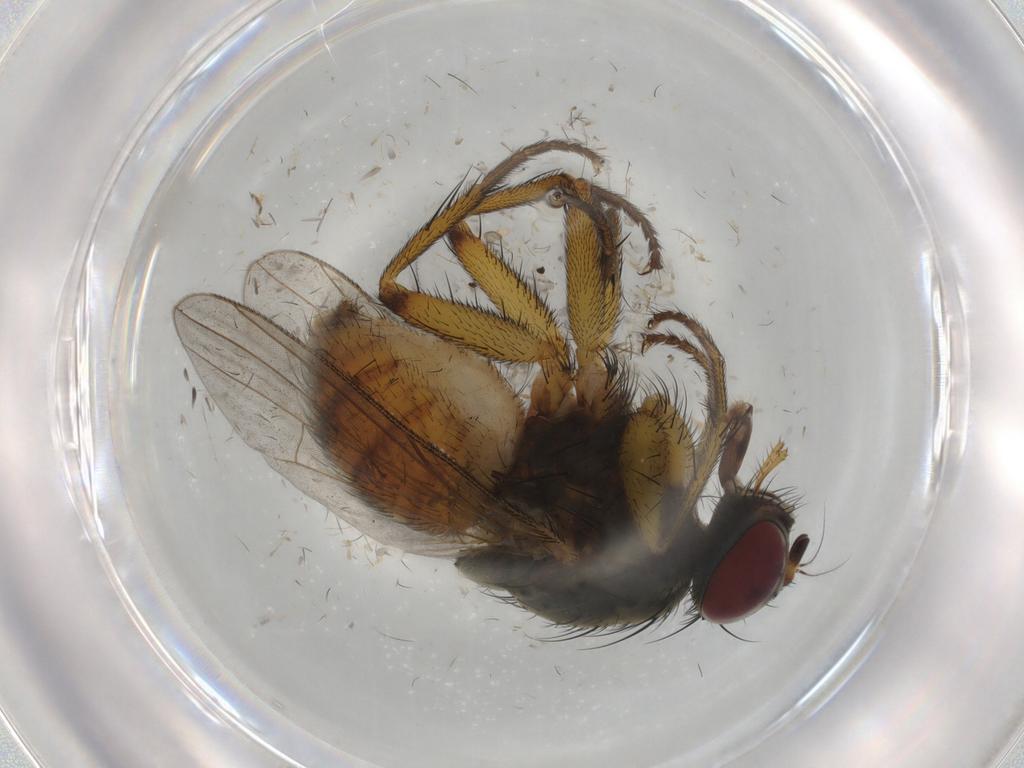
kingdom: Animalia
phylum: Arthropoda
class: Insecta
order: Diptera
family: Muscidae
